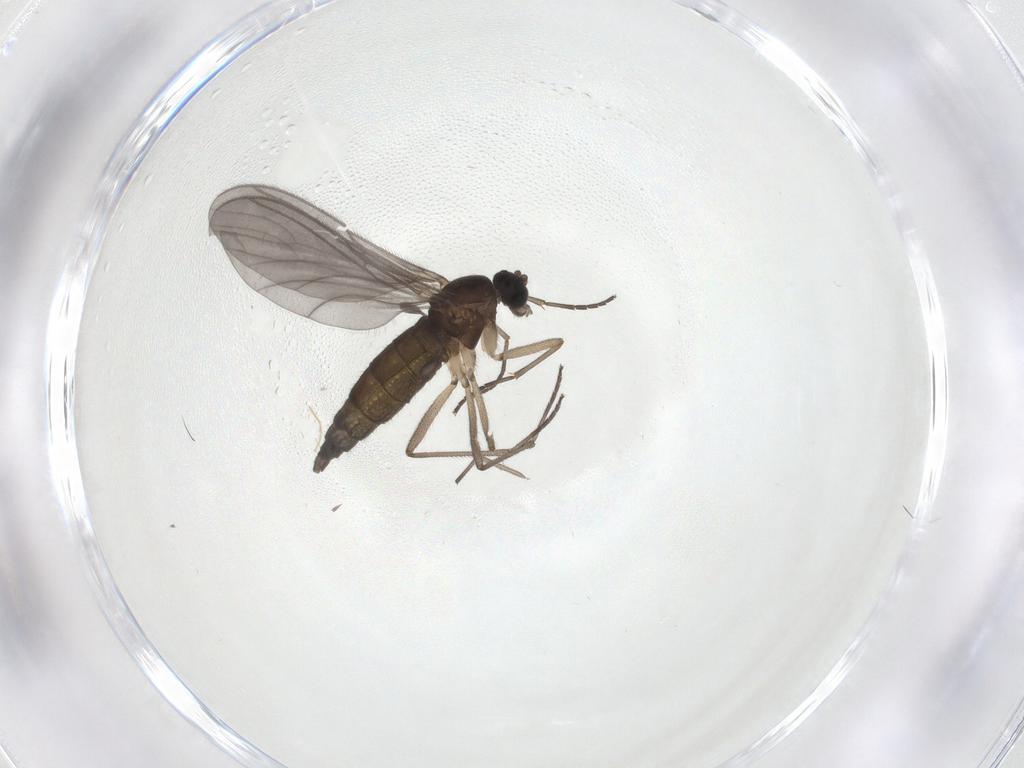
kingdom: Animalia
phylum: Arthropoda
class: Insecta
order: Diptera
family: Sciaridae
